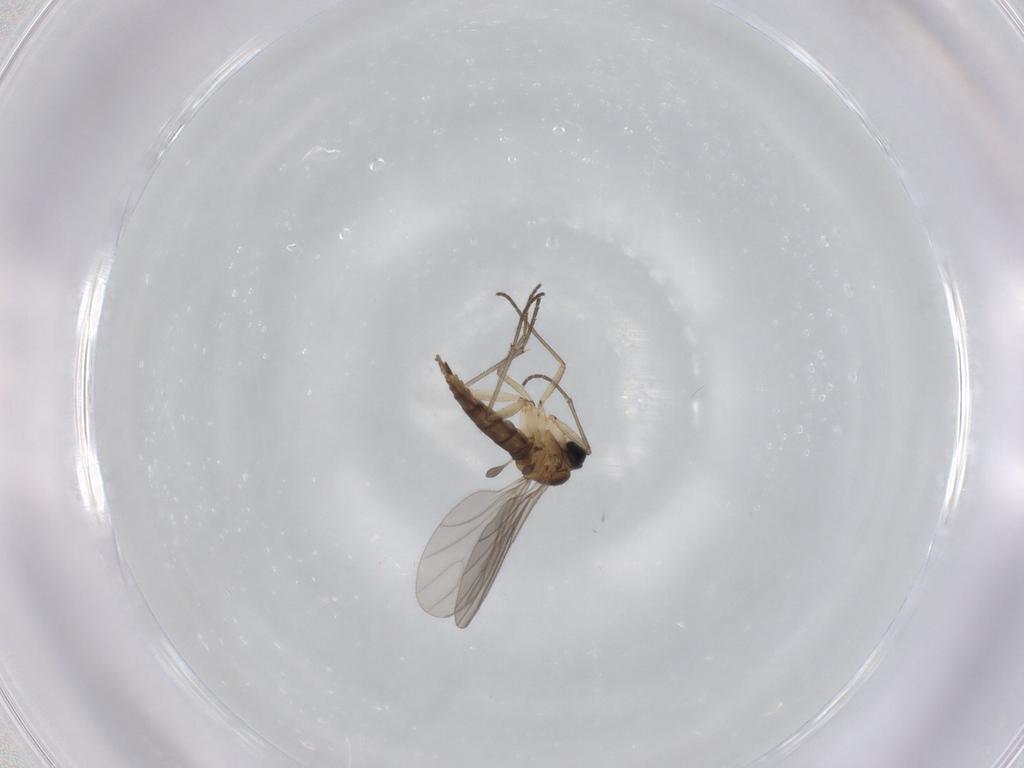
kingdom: Animalia
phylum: Arthropoda
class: Insecta
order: Diptera
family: Sciaridae
